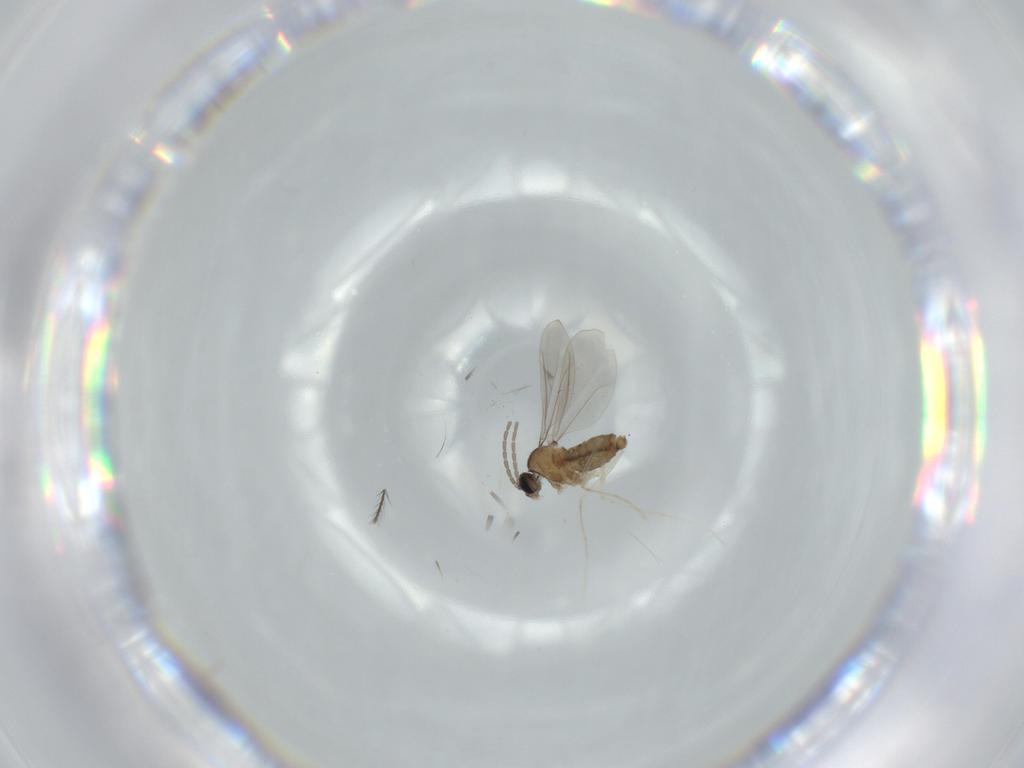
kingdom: Animalia
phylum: Arthropoda
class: Insecta
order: Diptera
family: Cecidomyiidae
